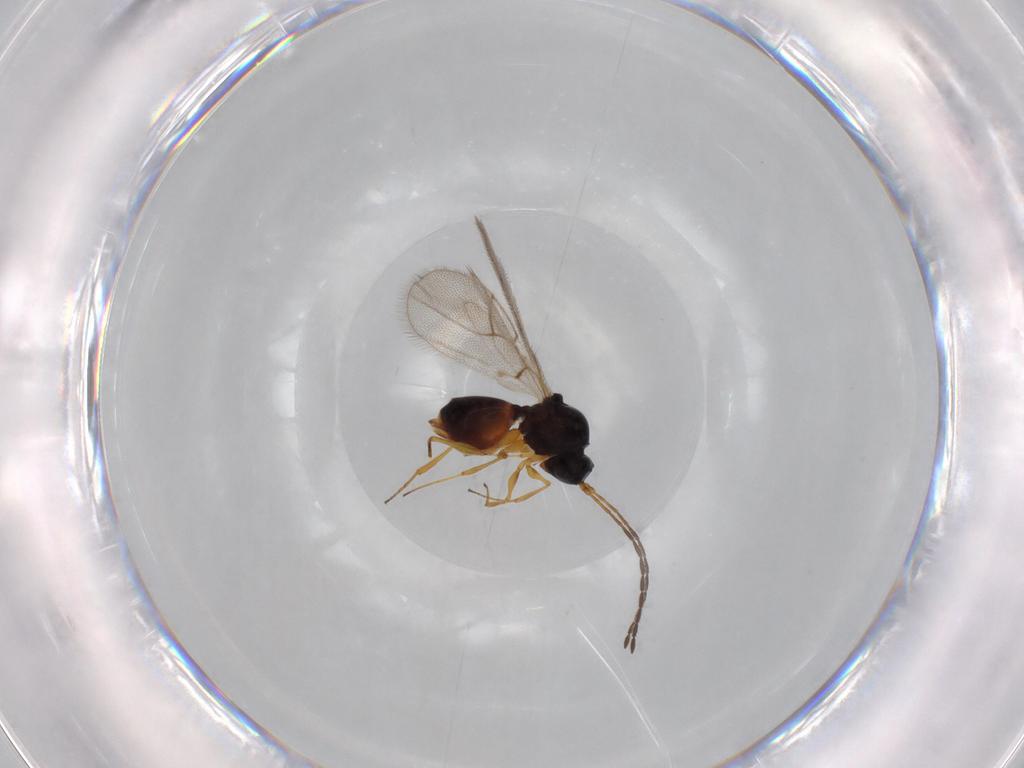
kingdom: Animalia
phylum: Arthropoda
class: Insecta
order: Hymenoptera
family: Figitidae
